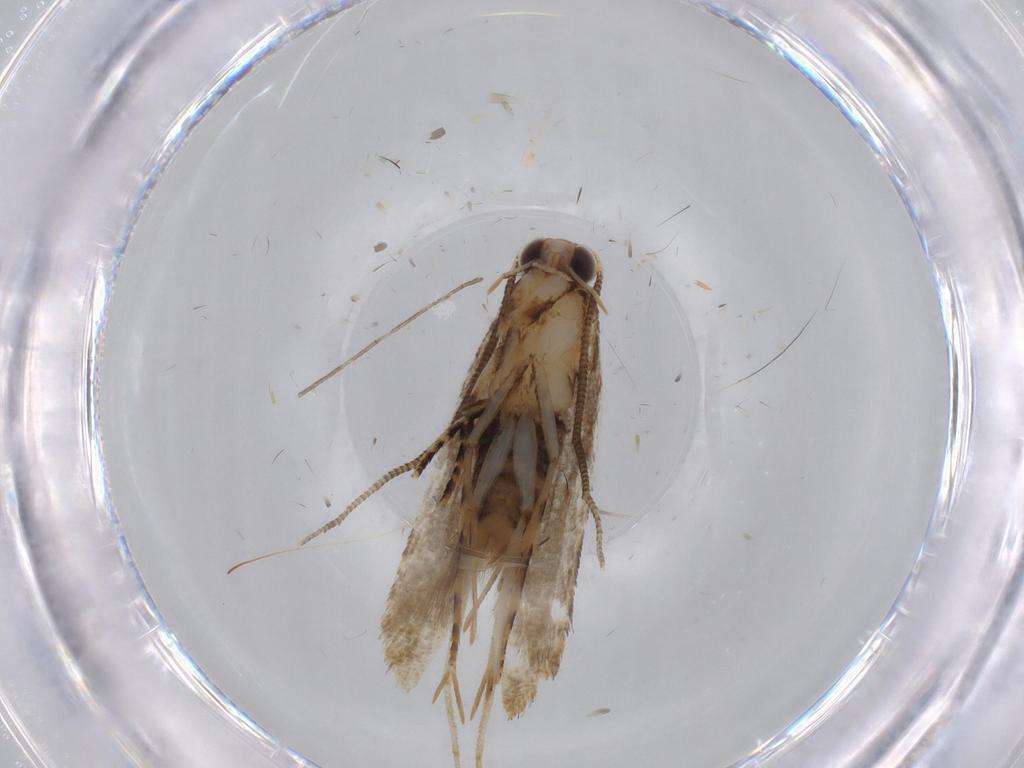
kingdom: Animalia
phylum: Arthropoda
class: Insecta
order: Lepidoptera
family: Tineidae
